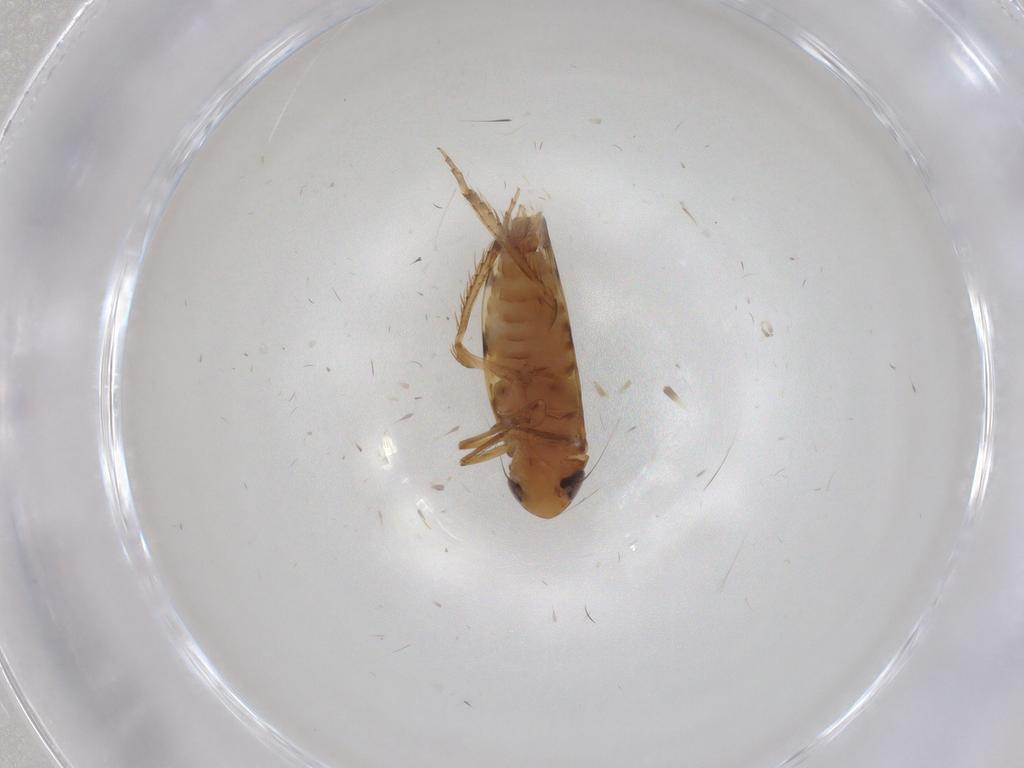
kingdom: Animalia
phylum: Arthropoda
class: Insecta
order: Hemiptera
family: Cicadellidae
